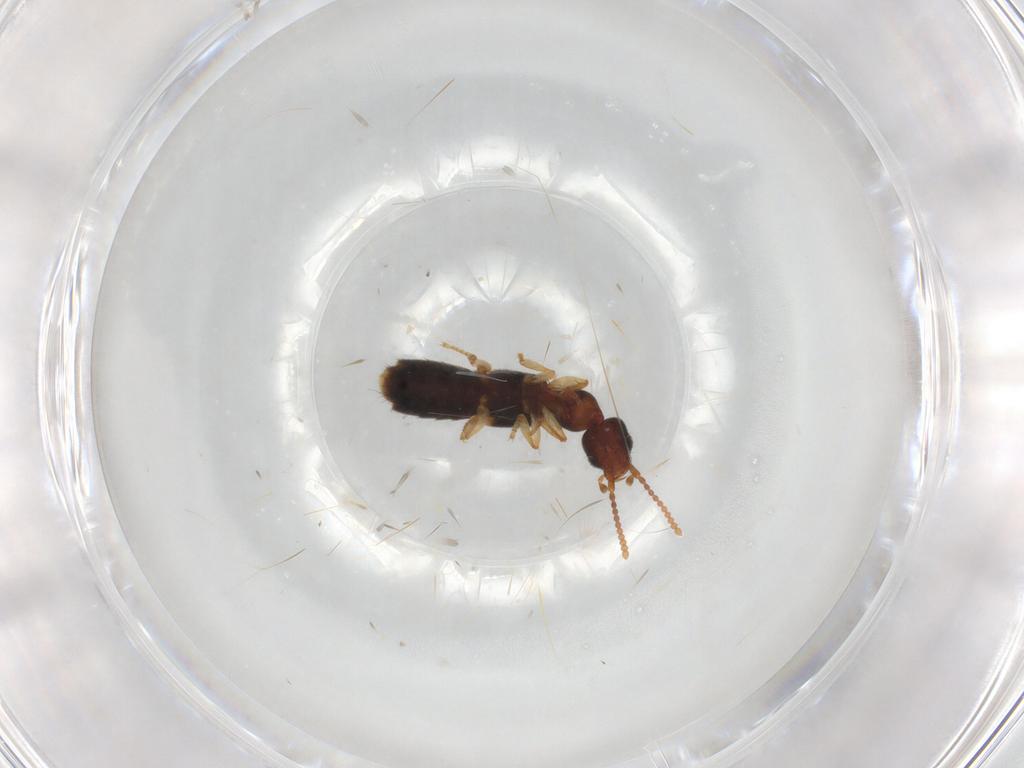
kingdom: Animalia
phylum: Arthropoda
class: Insecta
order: Coleoptera
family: Staphylinidae
